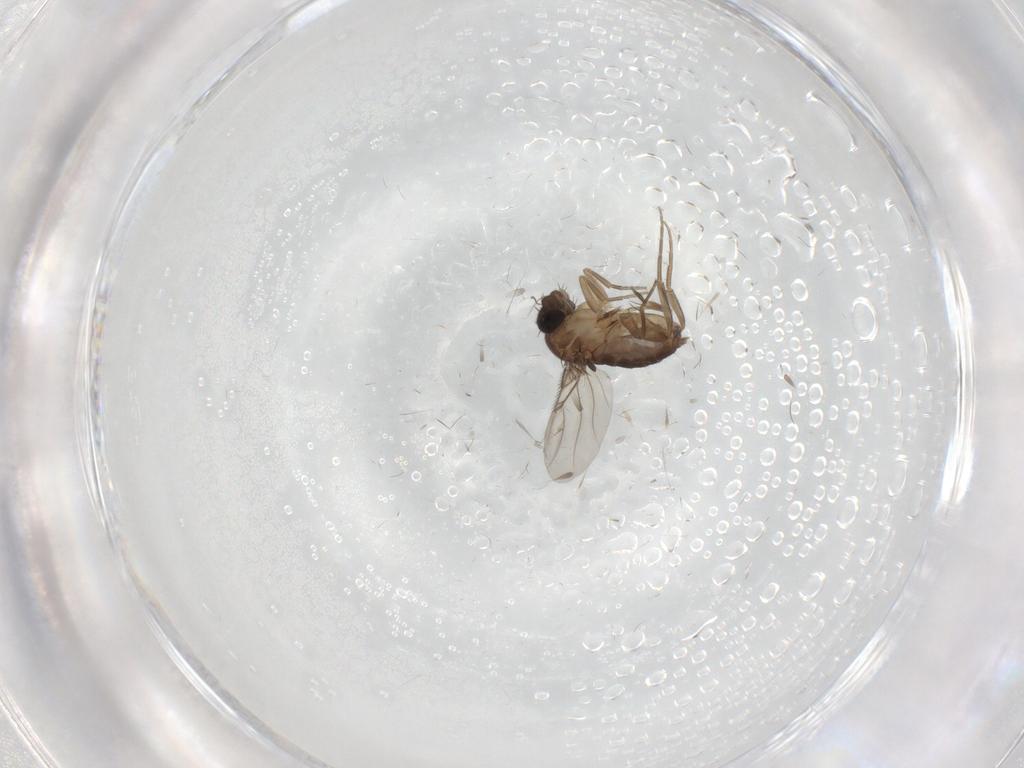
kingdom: Animalia
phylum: Arthropoda
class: Insecta
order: Diptera
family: Phoridae
